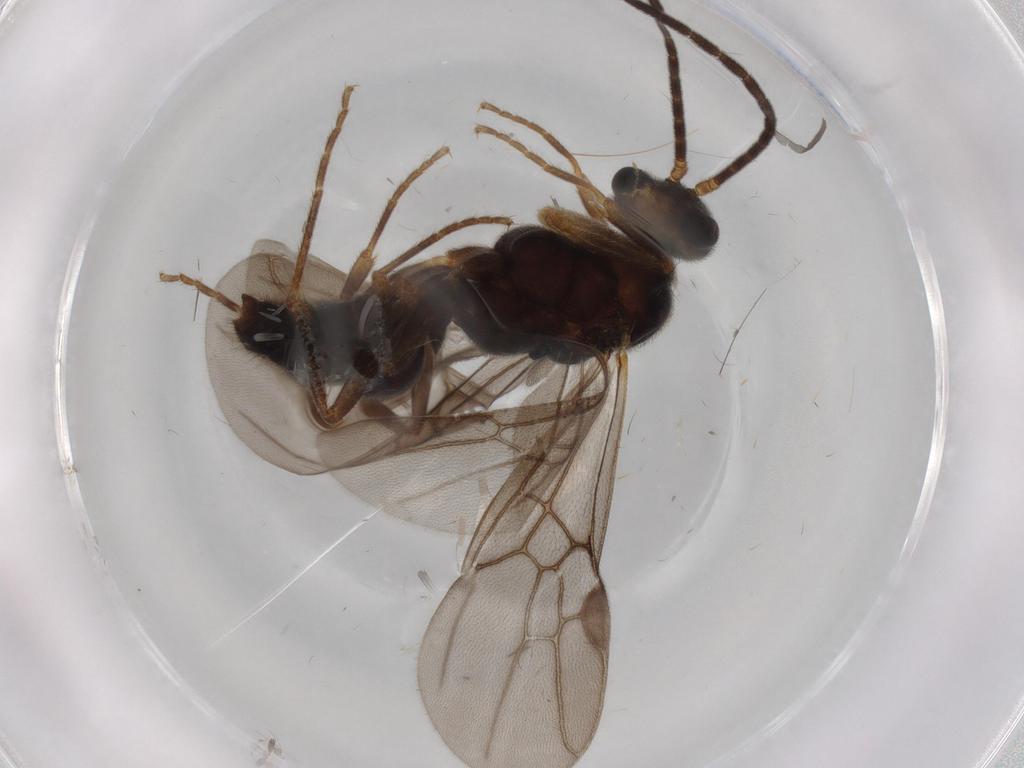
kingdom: Animalia
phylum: Arthropoda
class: Insecta
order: Hymenoptera
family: Formicidae
